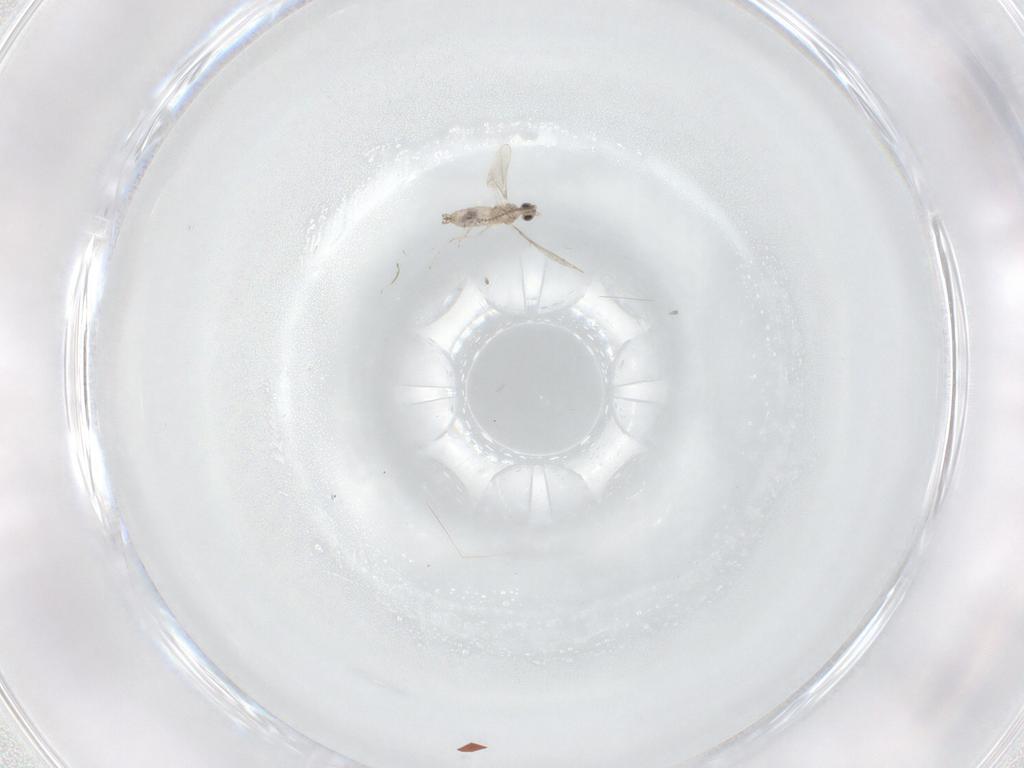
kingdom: Animalia
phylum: Arthropoda
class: Insecta
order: Diptera
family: Cecidomyiidae
